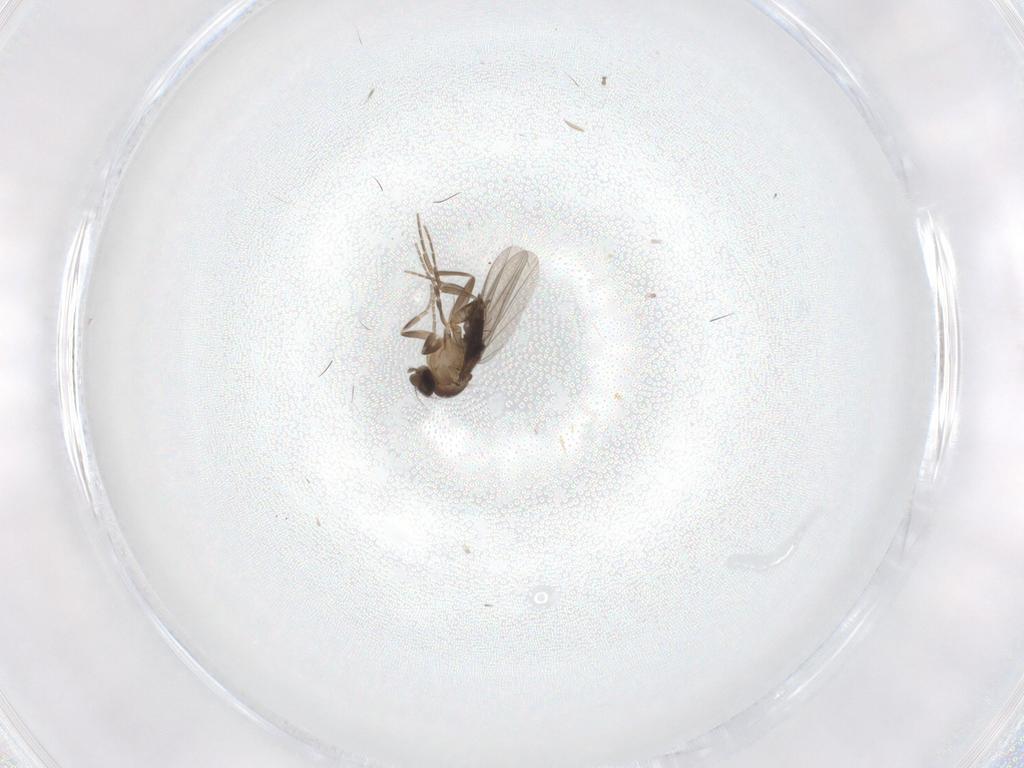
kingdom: Animalia
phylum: Arthropoda
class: Insecta
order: Diptera
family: Phoridae
